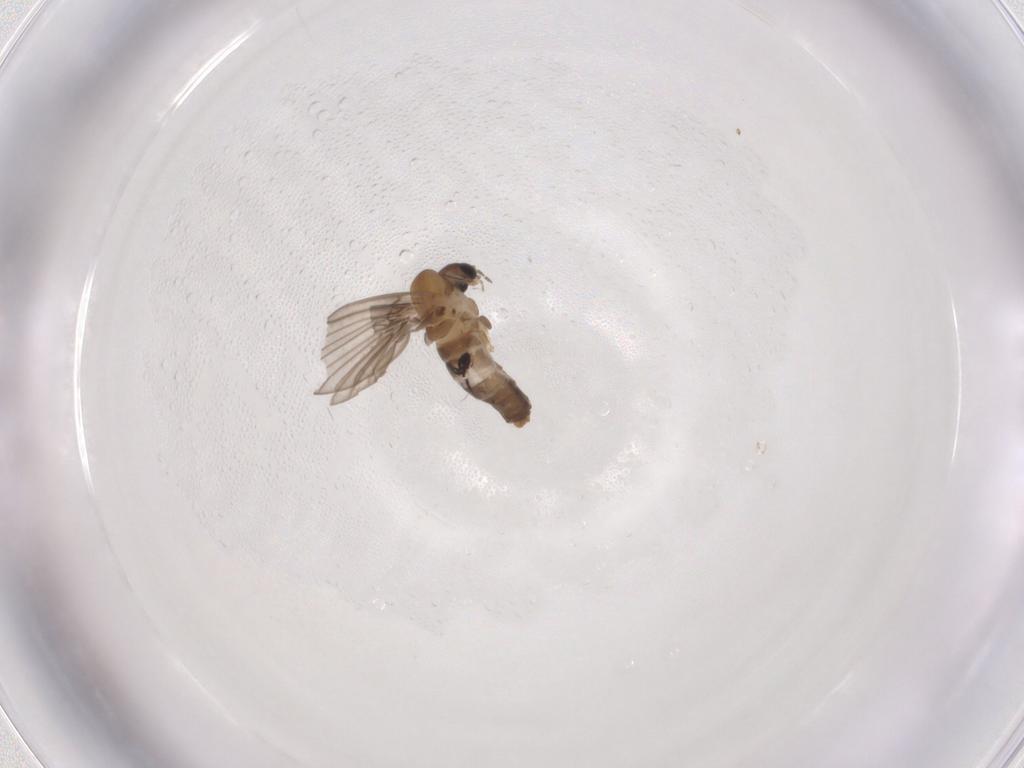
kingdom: Animalia
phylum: Arthropoda
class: Insecta
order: Diptera
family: Psychodidae
